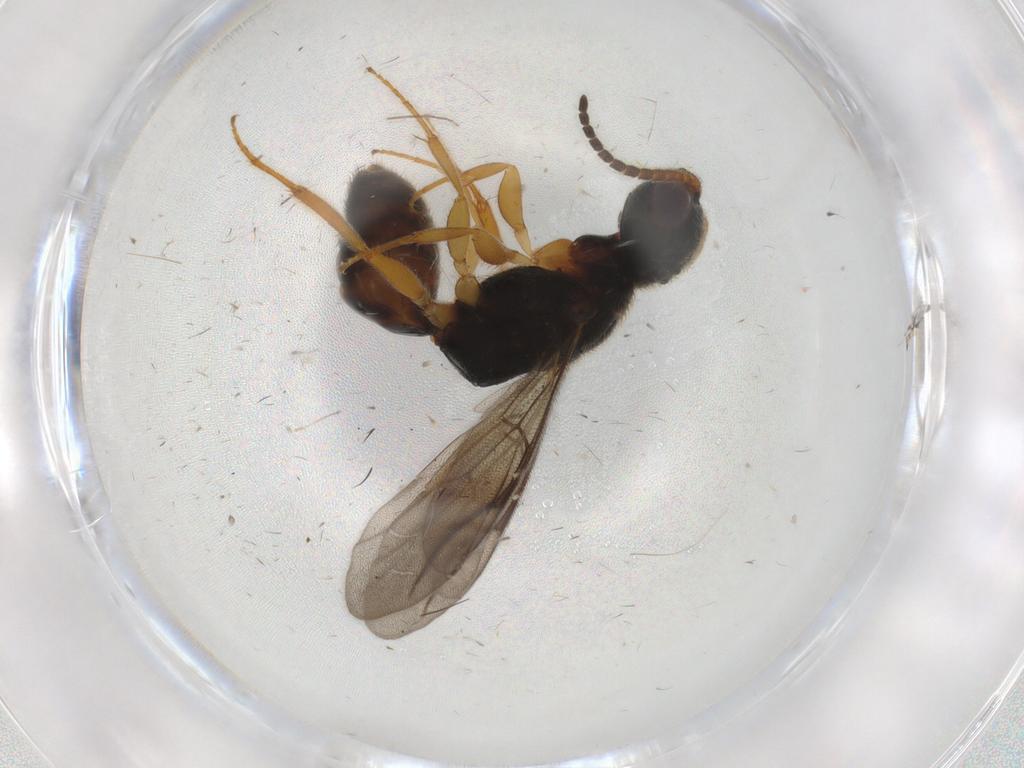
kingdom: Animalia
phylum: Arthropoda
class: Insecta
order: Hymenoptera
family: Bethylidae
